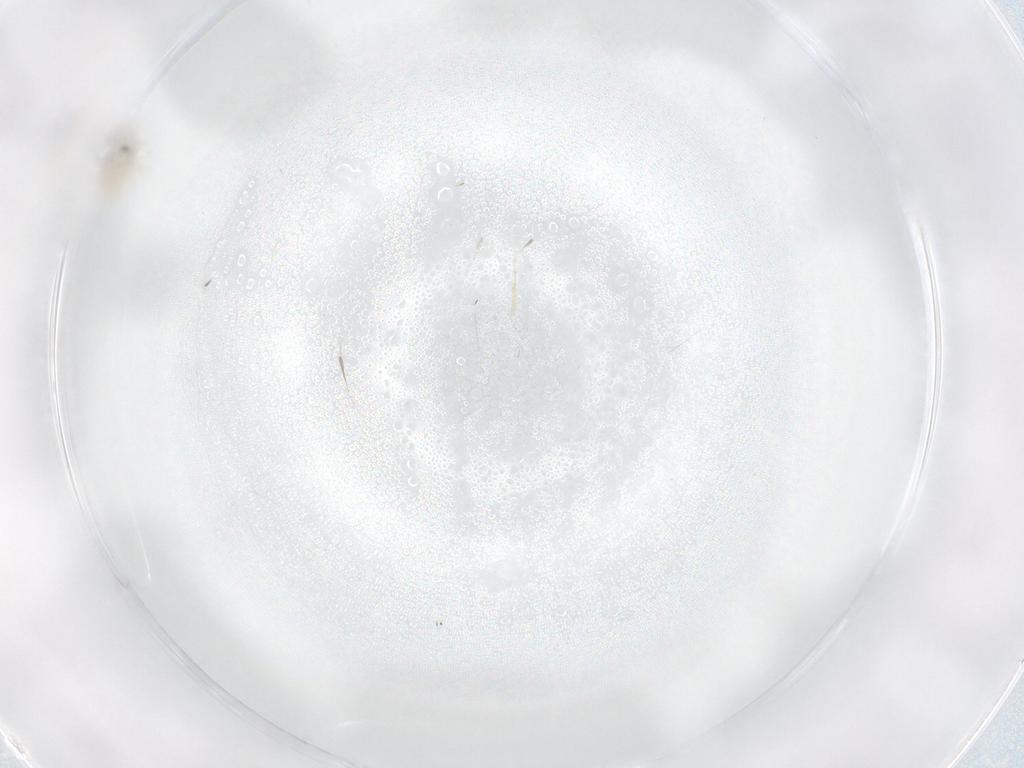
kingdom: Animalia
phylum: Arthropoda
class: Insecta
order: Diptera
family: Cecidomyiidae
